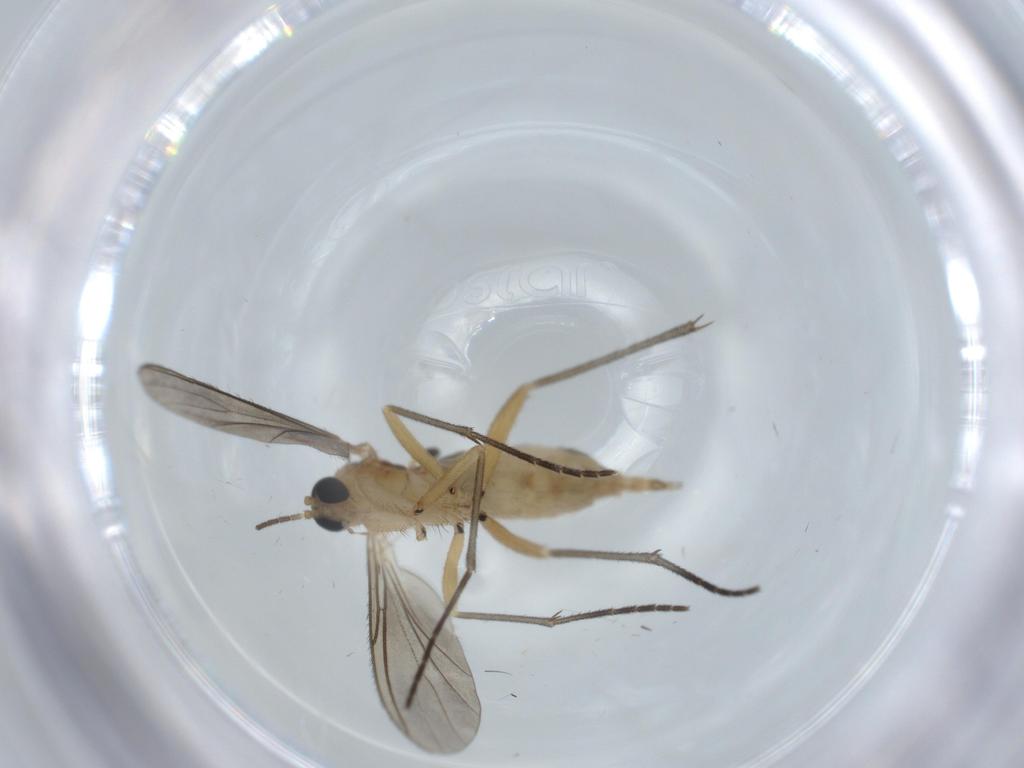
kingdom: Animalia
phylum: Arthropoda
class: Insecta
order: Diptera
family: Sciaridae
